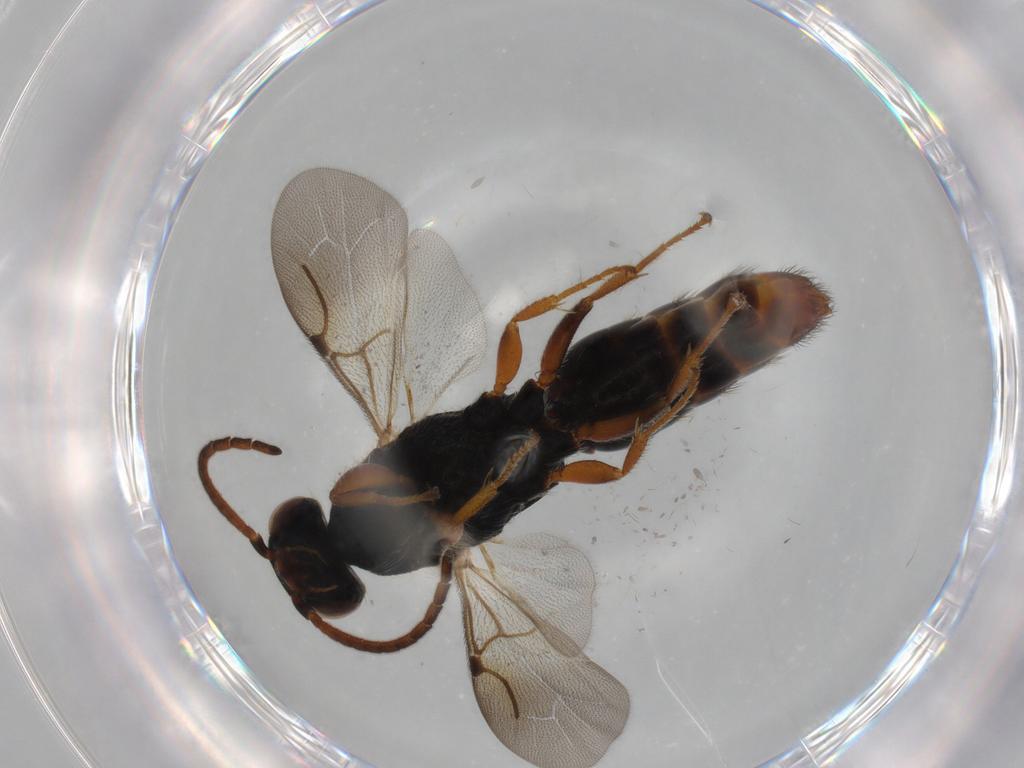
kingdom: Animalia
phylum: Arthropoda
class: Insecta
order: Hymenoptera
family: Bethylidae
